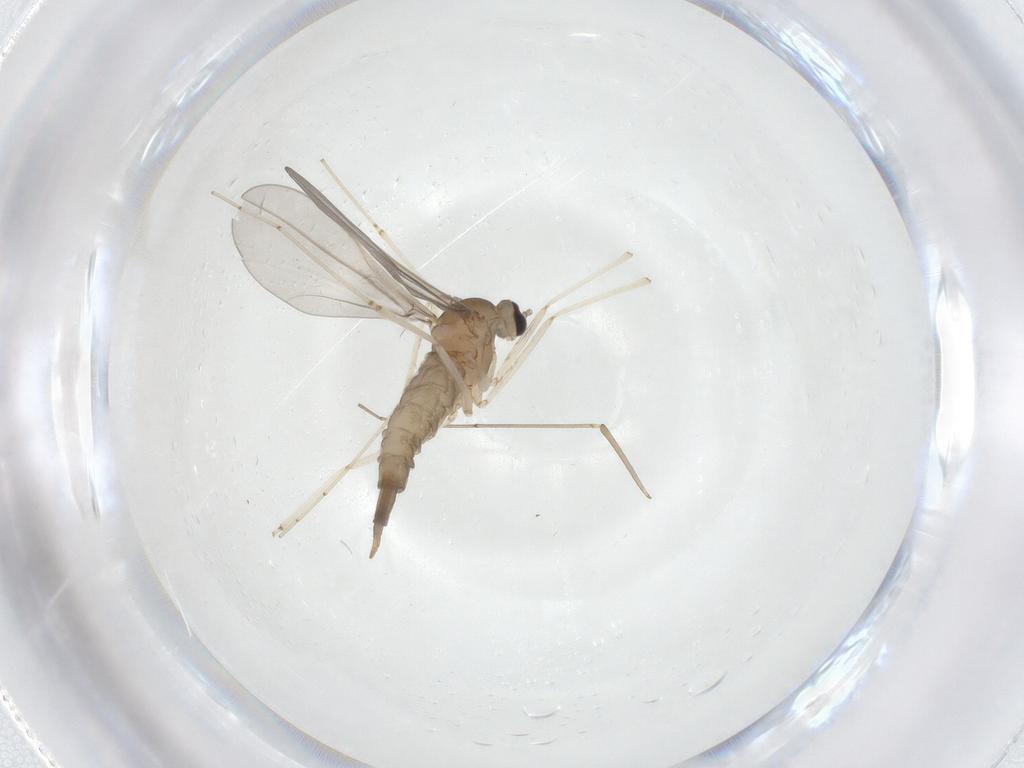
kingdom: Animalia
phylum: Arthropoda
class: Insecta
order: Diptera
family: Cecidomyiidae
